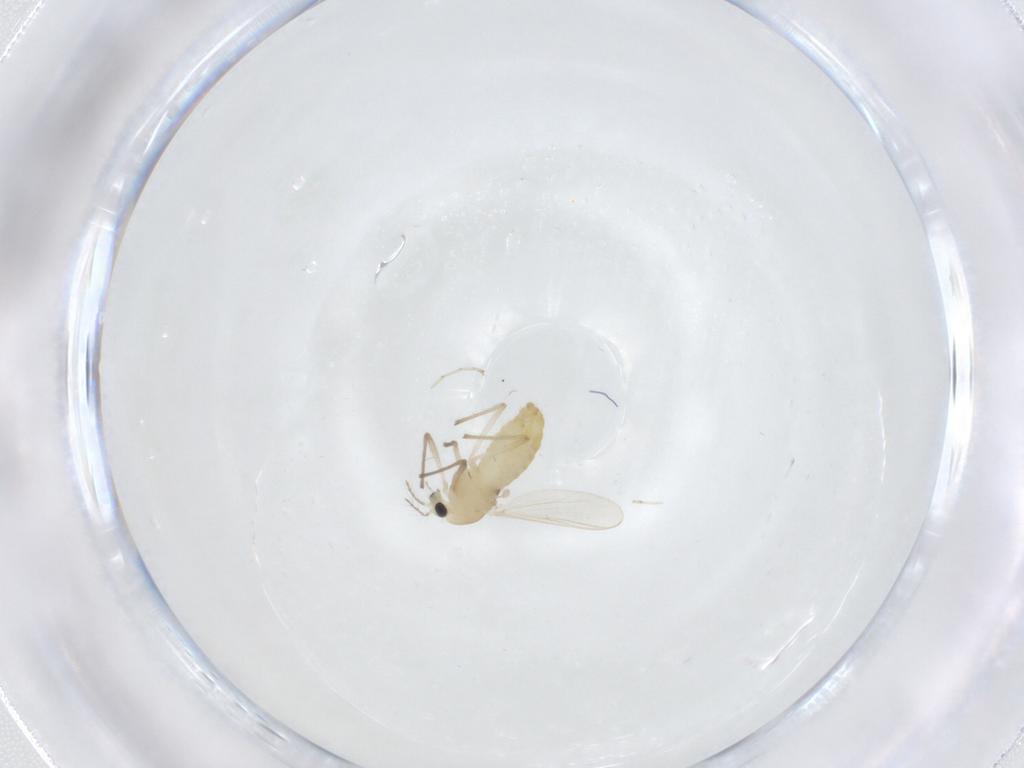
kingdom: Animalia
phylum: Arthropoda
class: Insecta
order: Diptera
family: Chironomidae
